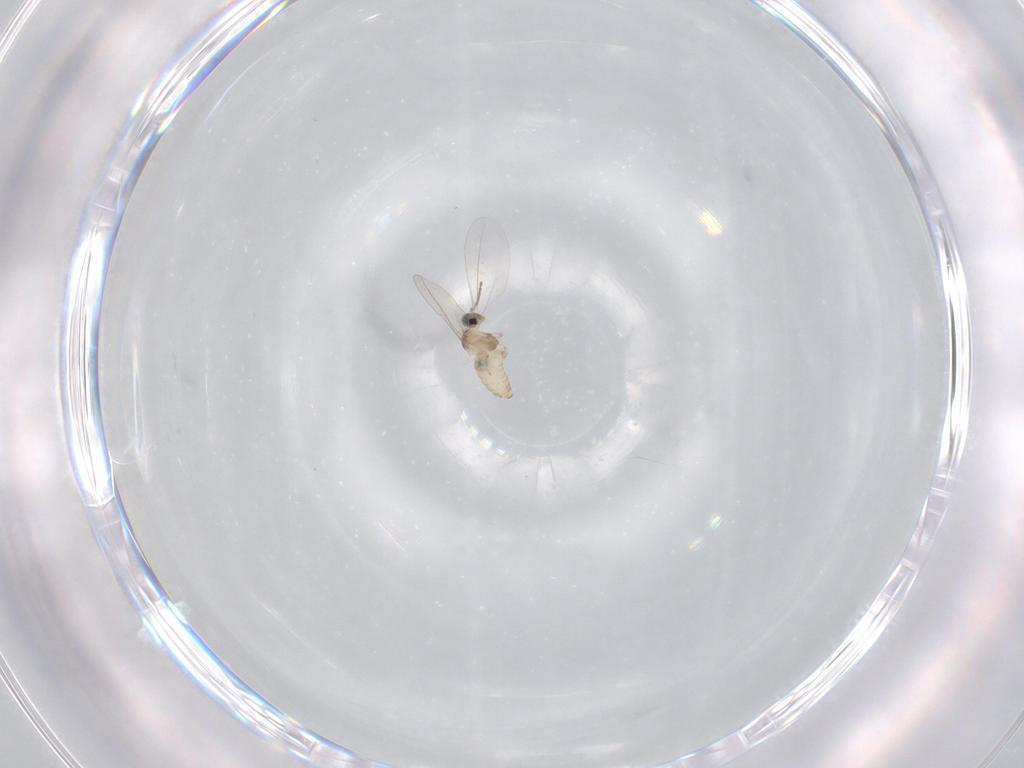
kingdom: Animalia
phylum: Arthropoda
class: Insecta
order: Diptera
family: Cecidomyiidae
